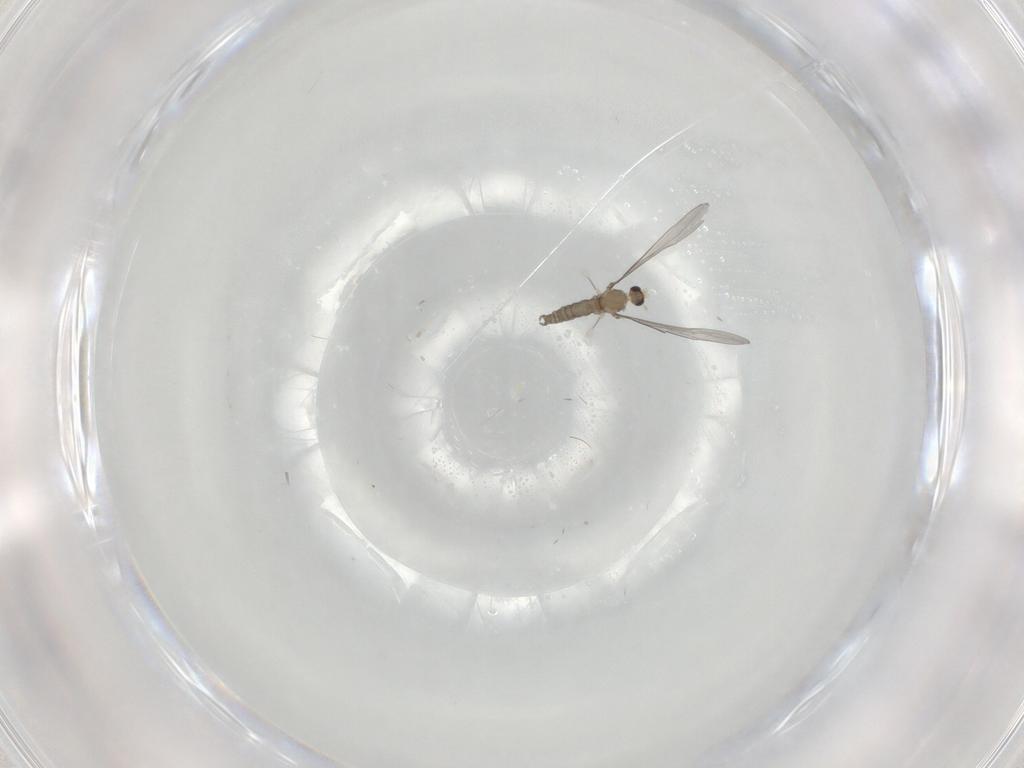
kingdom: Animalia
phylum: Arthropoda
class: Insecta
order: Diptera
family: Cecidomyiidae
